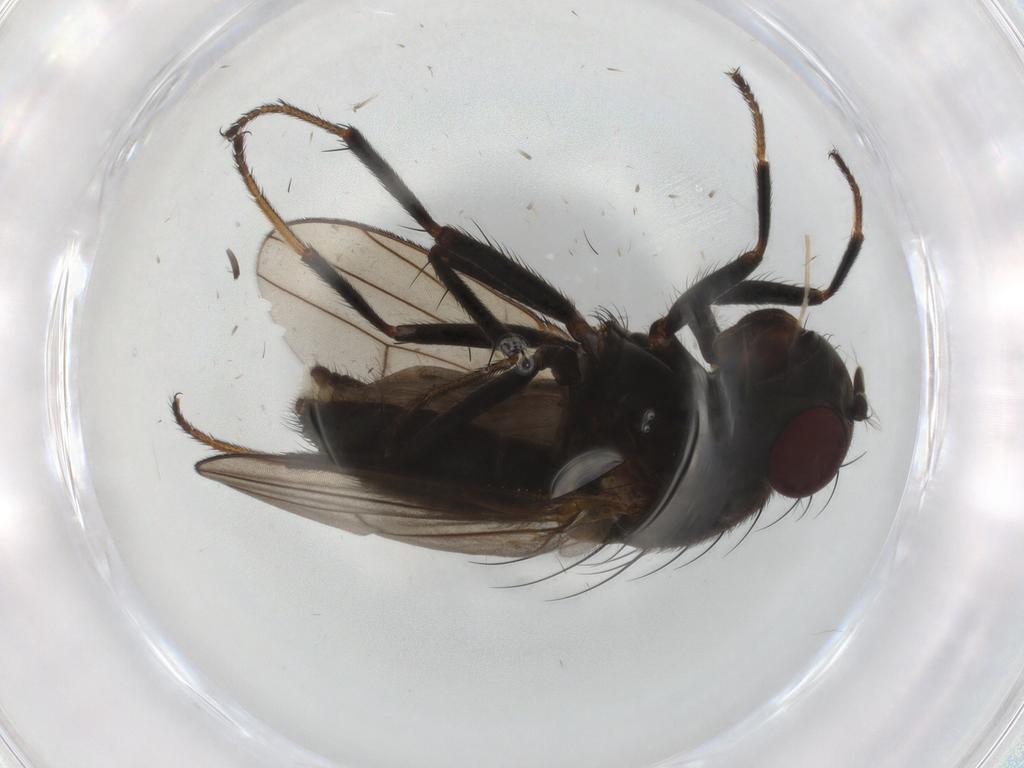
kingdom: Animalia
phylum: Arthropoda
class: Insecta
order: Diptera
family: Ephydridae
